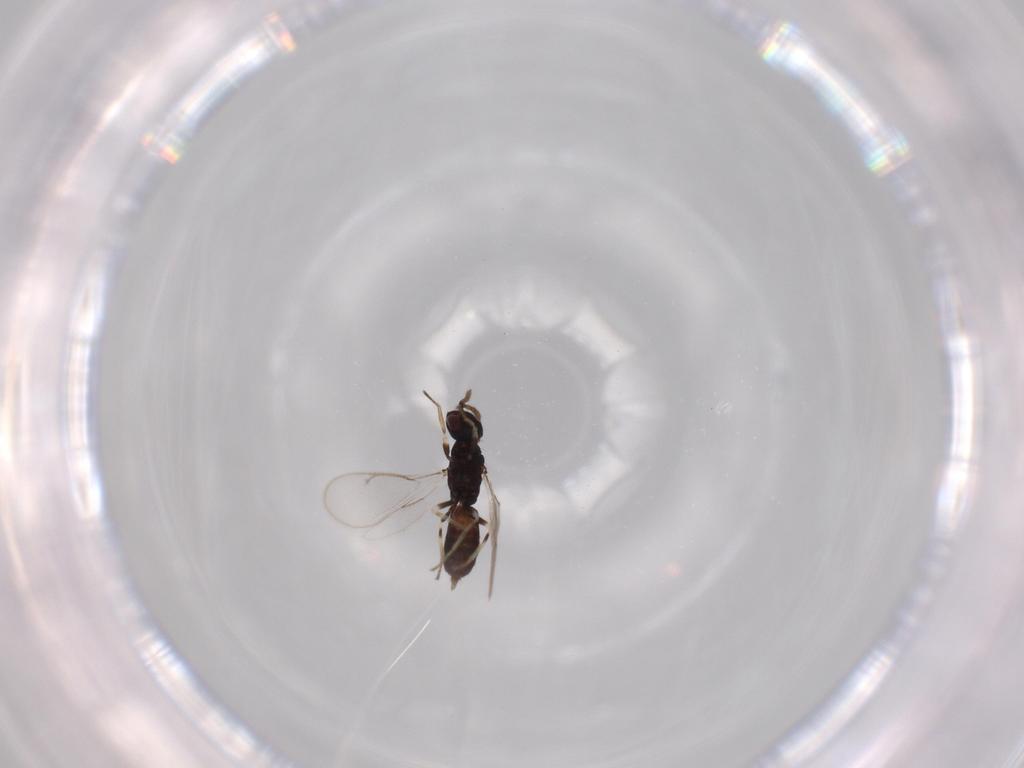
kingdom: Animalia
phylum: Arthropoda
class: Insecta
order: Hymenoptera
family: Eulophidae
